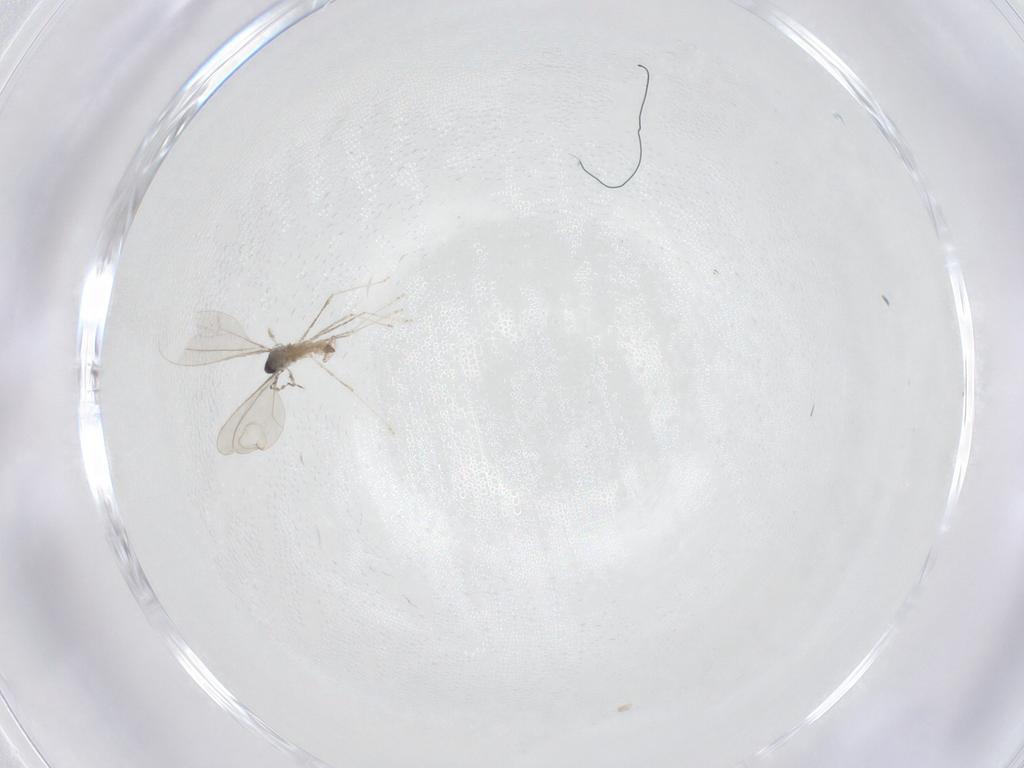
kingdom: Animalia
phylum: Arthropoda
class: Insecta
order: Diptera
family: Cecidomyiidae
